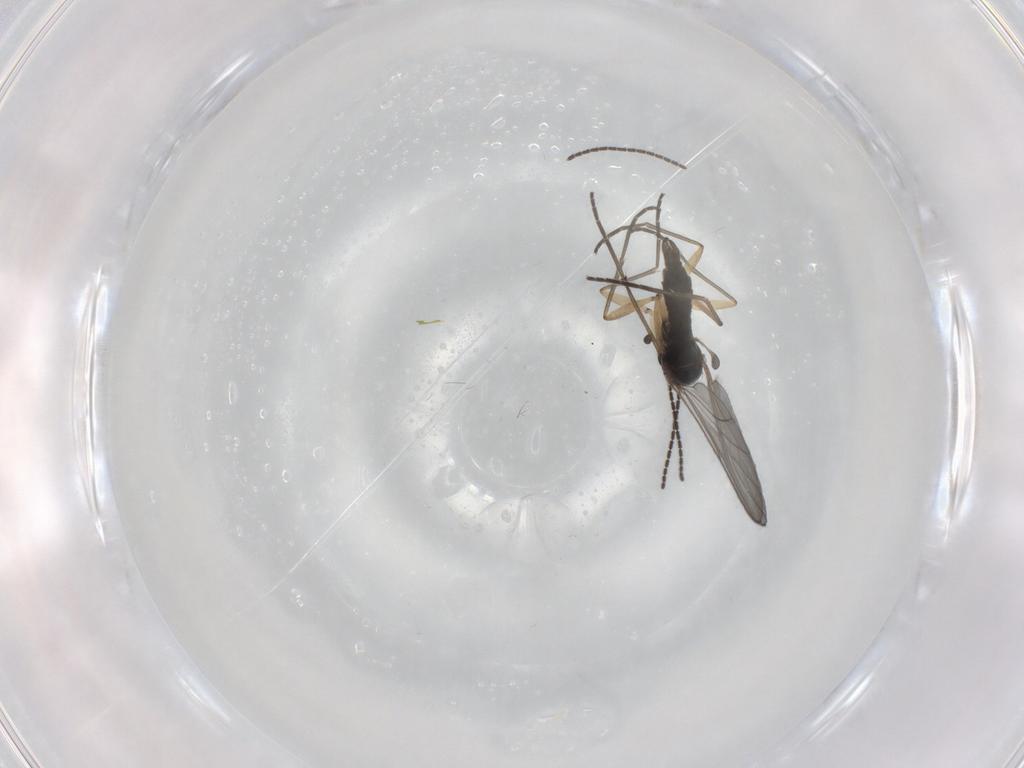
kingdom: Animalia
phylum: Arthropoda
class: Insecta
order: Diptera
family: Sciaridae
